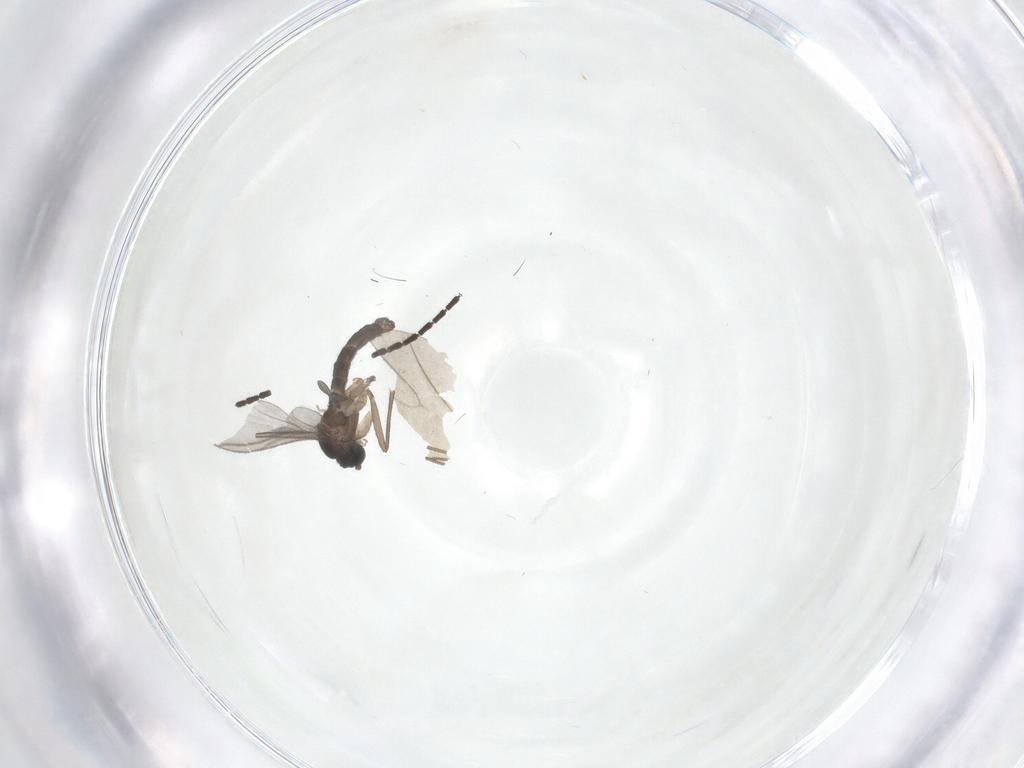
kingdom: Animalia
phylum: Arthropoda
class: Insecta
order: Diptera
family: Sciaridae
